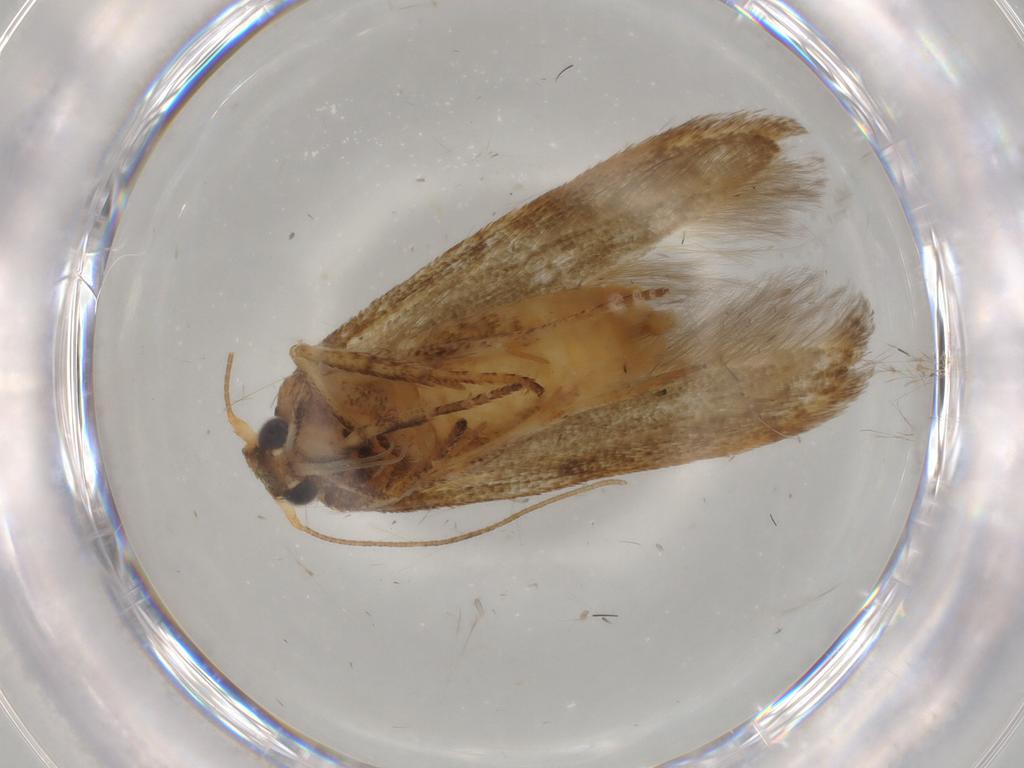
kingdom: Animalia
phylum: Arthropoda
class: Insecta
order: Lepidoptera
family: Blastobasidae
